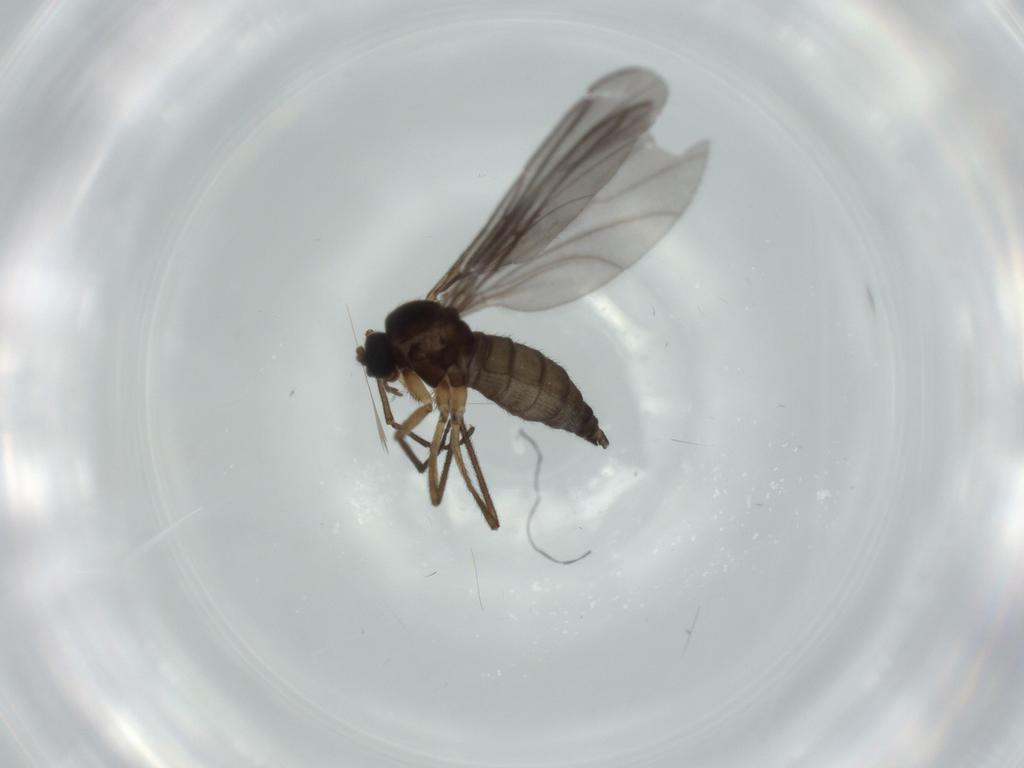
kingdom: Animalia
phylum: Arthropoda
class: Insecta
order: Diptera
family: Sciaridae
